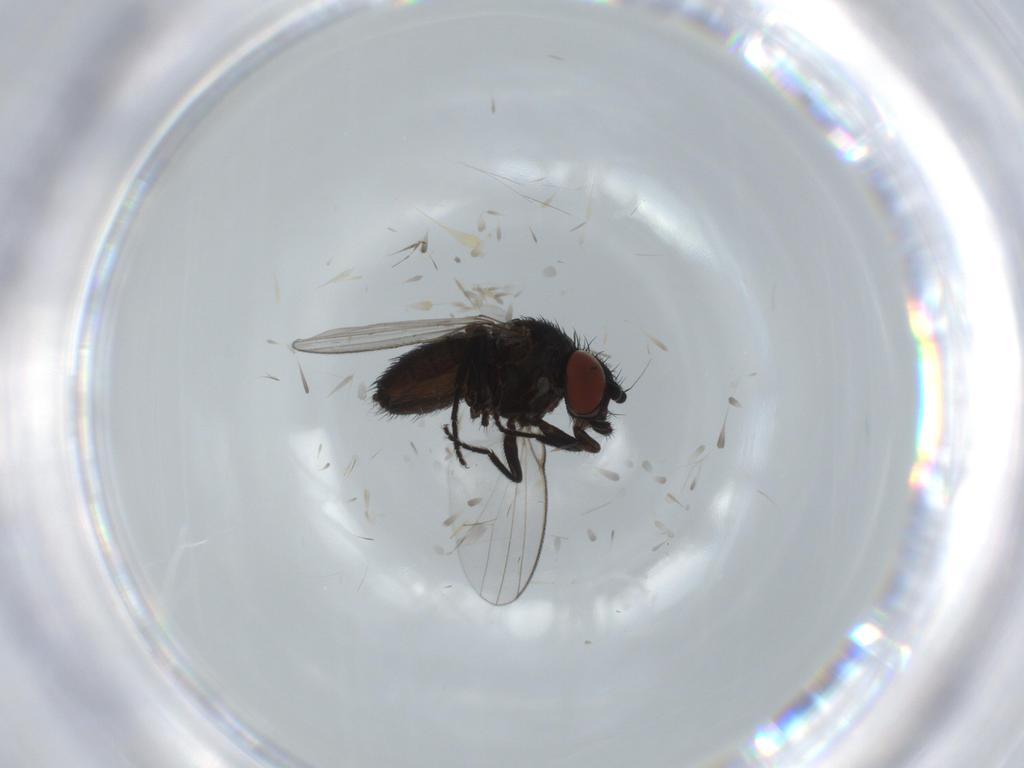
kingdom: Animalia
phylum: Arthropoda
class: Insecta
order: Diptera
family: Milichiidae
